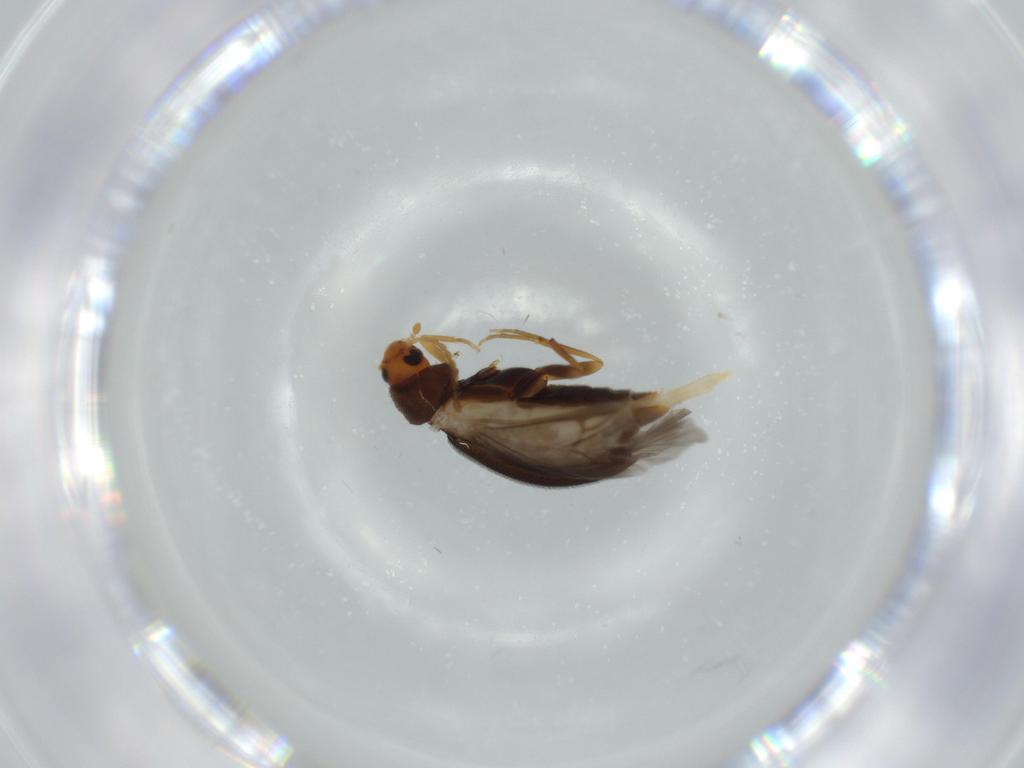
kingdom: Animalia
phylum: Arthropoda
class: Insecta
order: Coleoptera
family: Melandryidae
